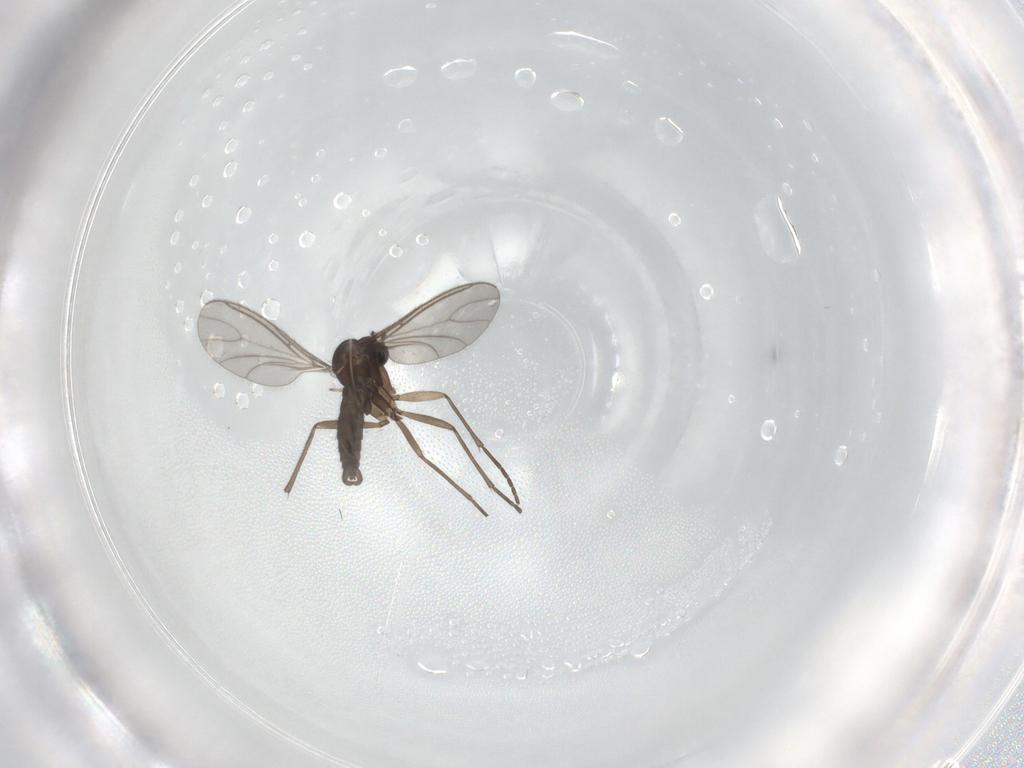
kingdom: Animalia
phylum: Arthropoda
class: Insecta
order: Diptera
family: Sciaridae
